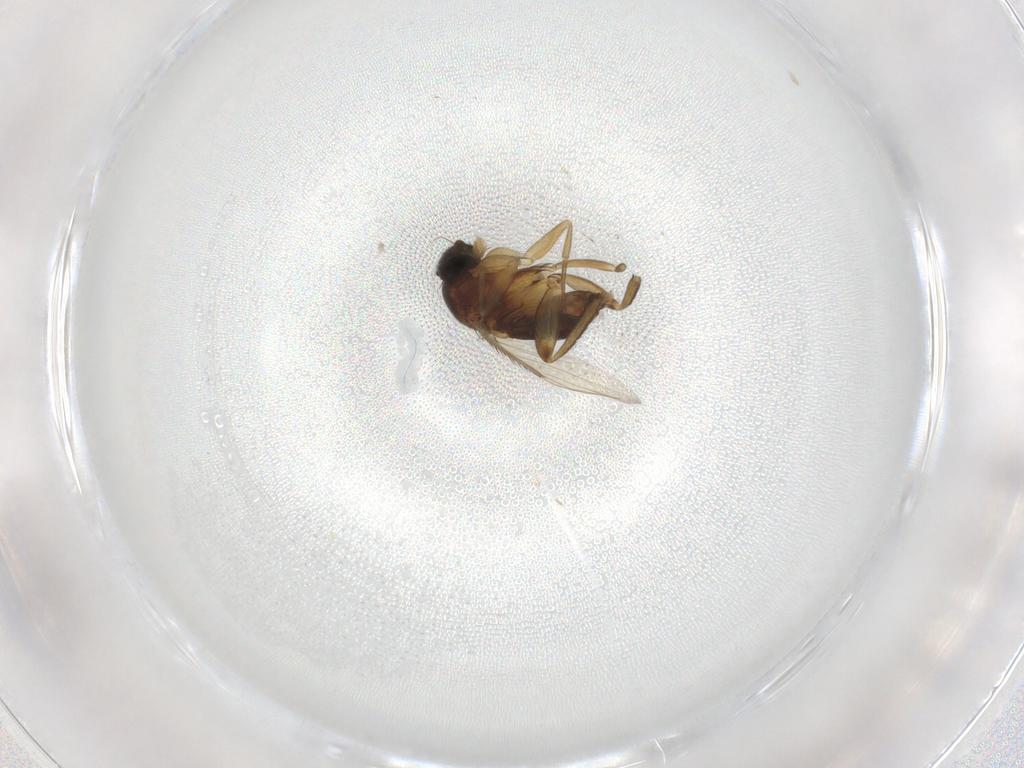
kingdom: Animalia
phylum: Arthropoda
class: Insecta
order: Diptera
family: Phoridae
